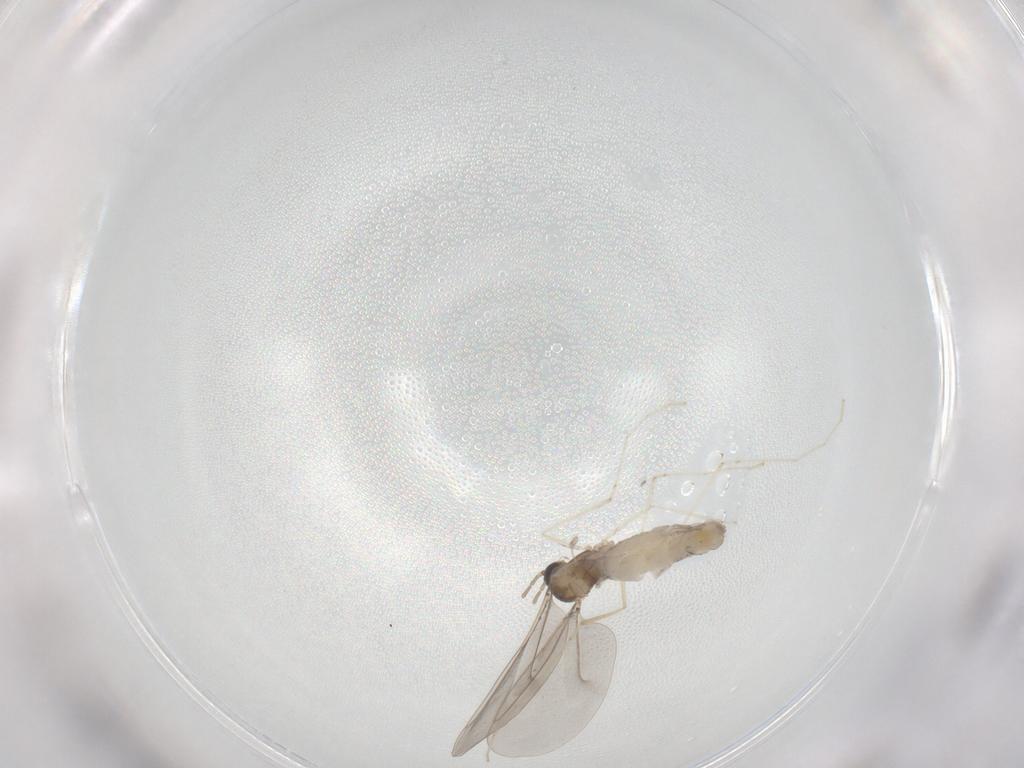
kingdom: Animalia
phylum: Arthropoda
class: Insecta
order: Diptera
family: Cecidomyiidae
